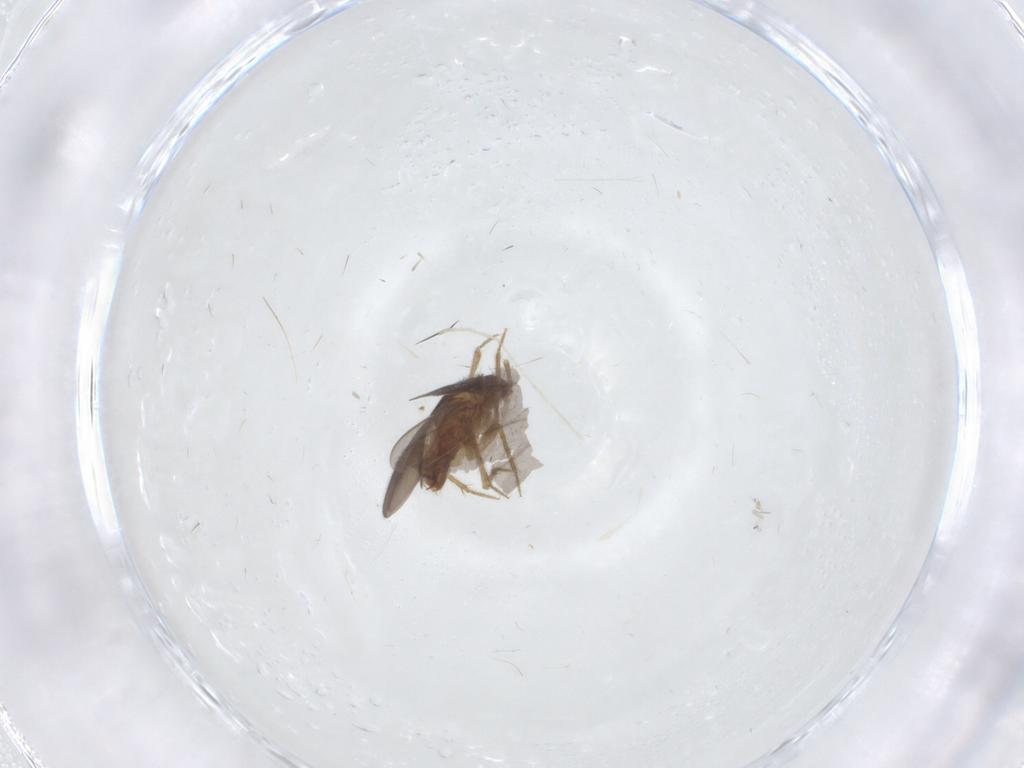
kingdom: Animalia
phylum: Arthropoda
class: Insecta
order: Hemiptera
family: Ceratocombidae
